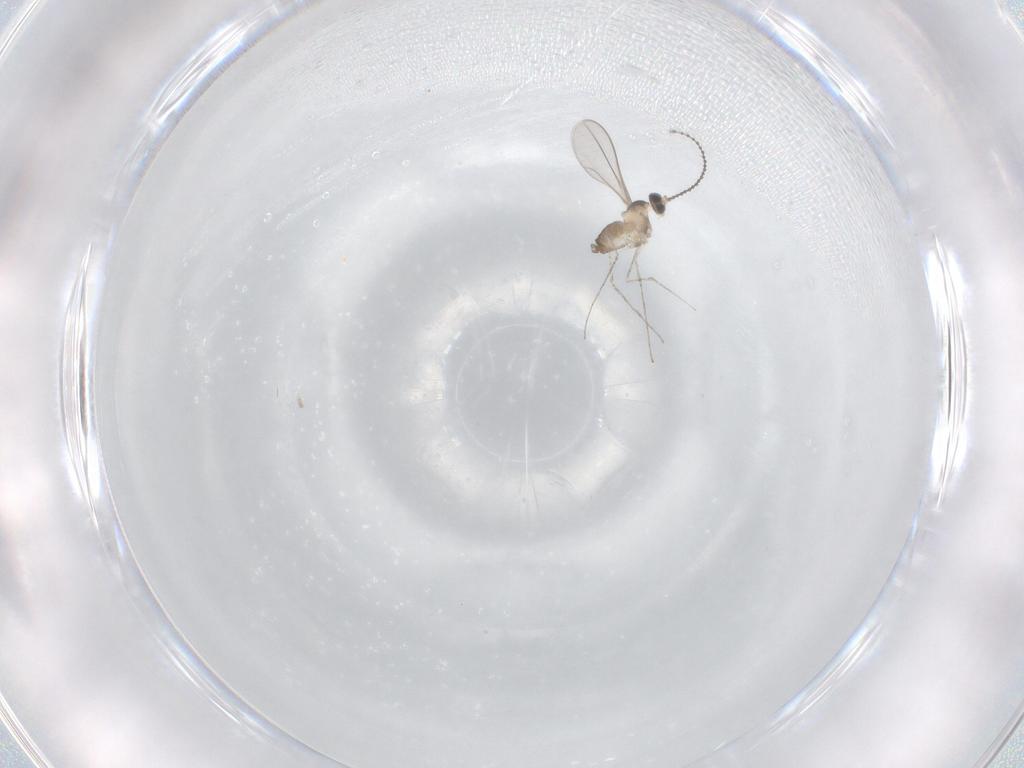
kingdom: Animalia
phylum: Arthropoda
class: Insecta
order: Diptera
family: Cecidomyiidae
